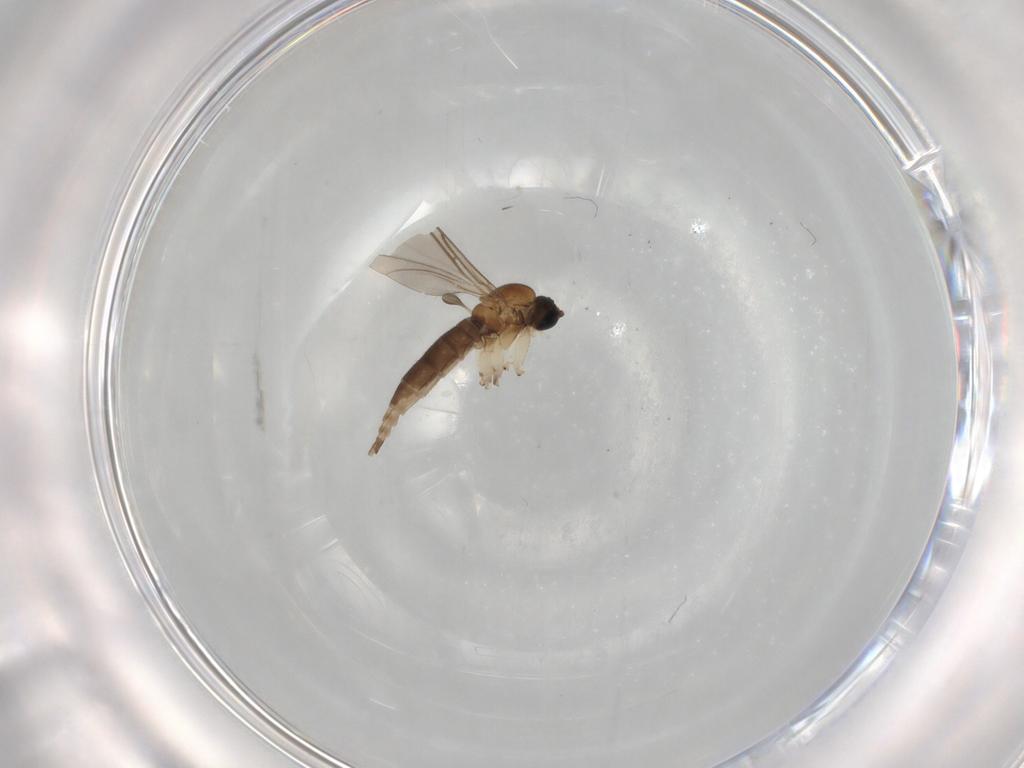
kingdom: Animalia
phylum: Arthropoda
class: Insecta
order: Diptera
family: Sciaridae
